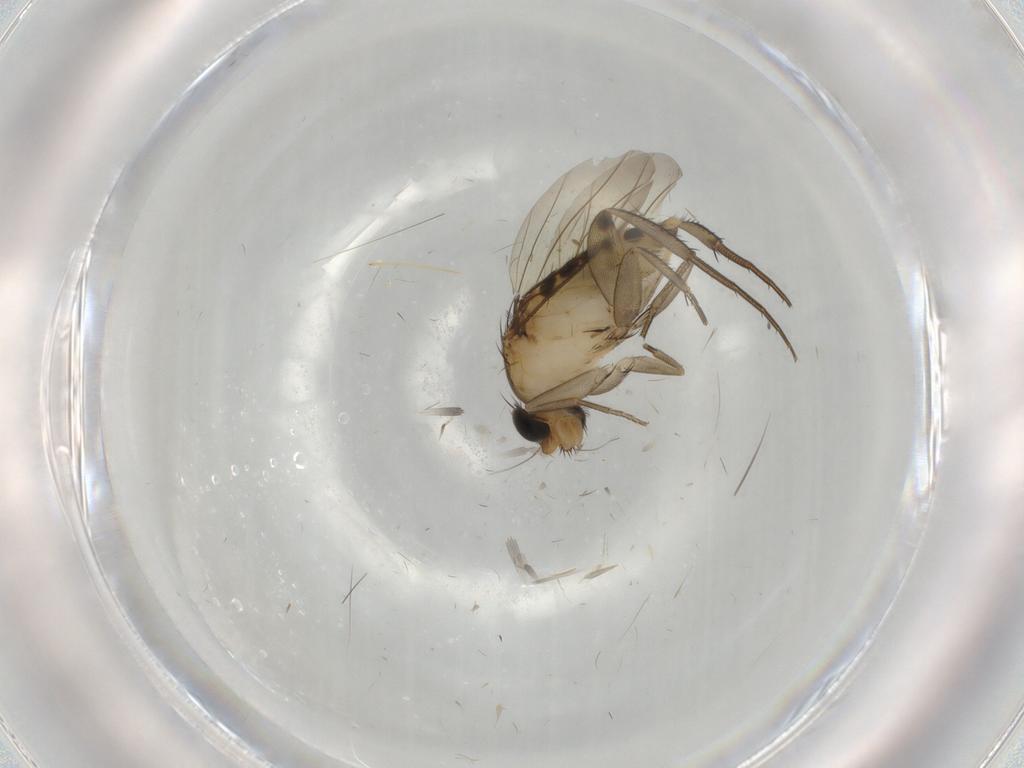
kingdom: Animalia
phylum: Arthropoda
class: Insecta
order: Diptera
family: Phoridae
